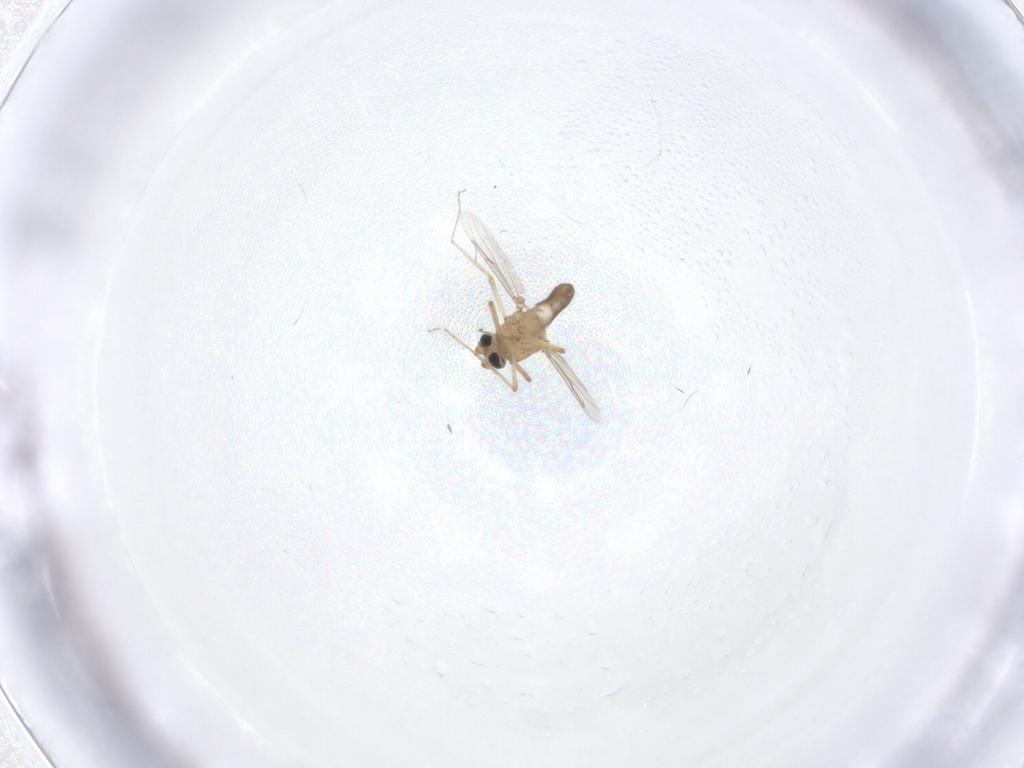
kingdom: Animalia
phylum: Arthropoda
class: Insecta
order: Diptera
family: Ceratopogonidae
